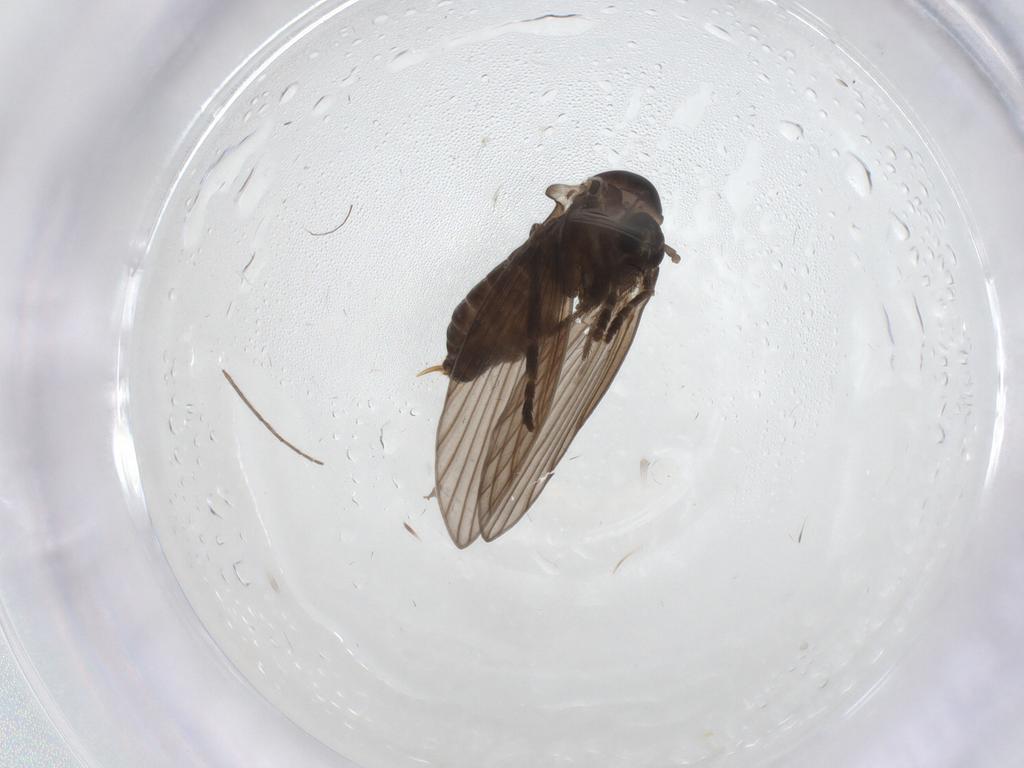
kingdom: Animalia
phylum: Arthropoda
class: Insecta
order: Diptera
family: Psychodidae
